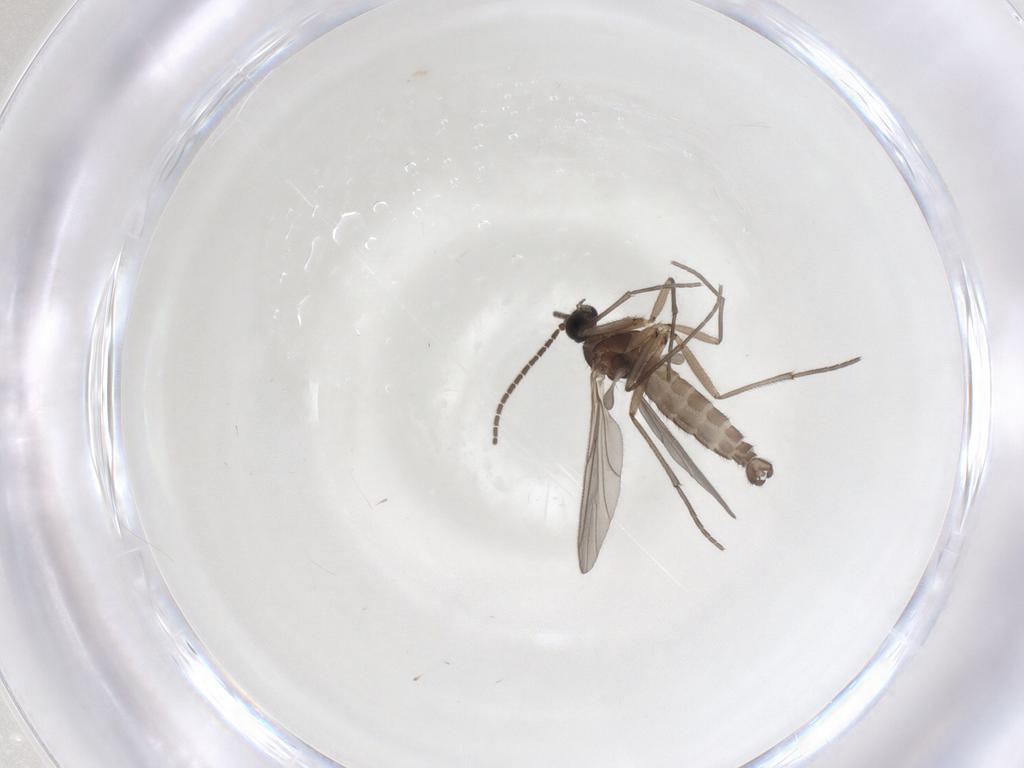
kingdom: Animalia
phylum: Arthropoda
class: Insecta
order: Diptera
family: Sciaridae
